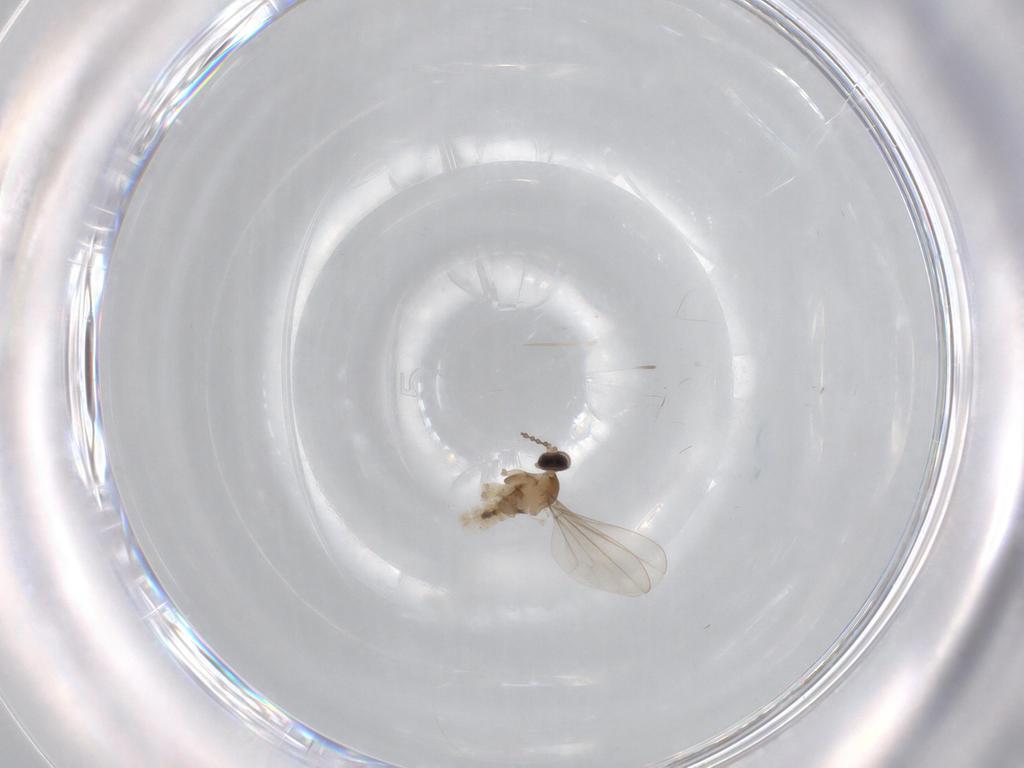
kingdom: Animalia
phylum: Arthropoda
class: Insecta
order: Diptera
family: Cecidomyiidae
